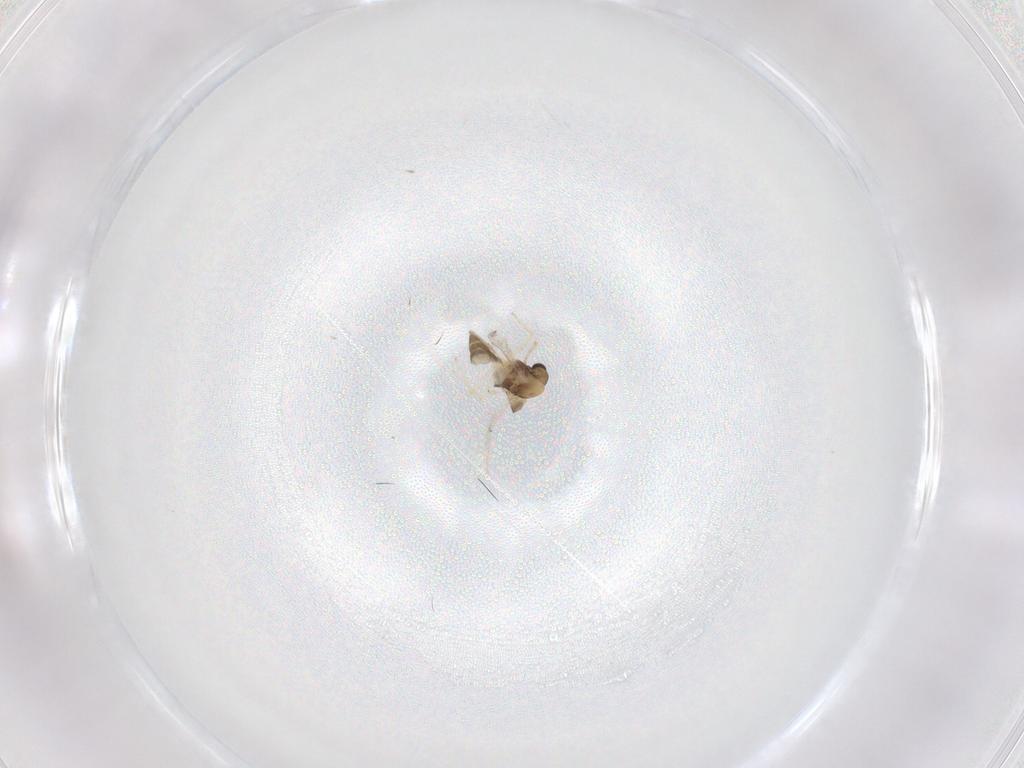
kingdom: Animalia
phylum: Arthropoda
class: Insecta
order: Diptera
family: Chironomidae
